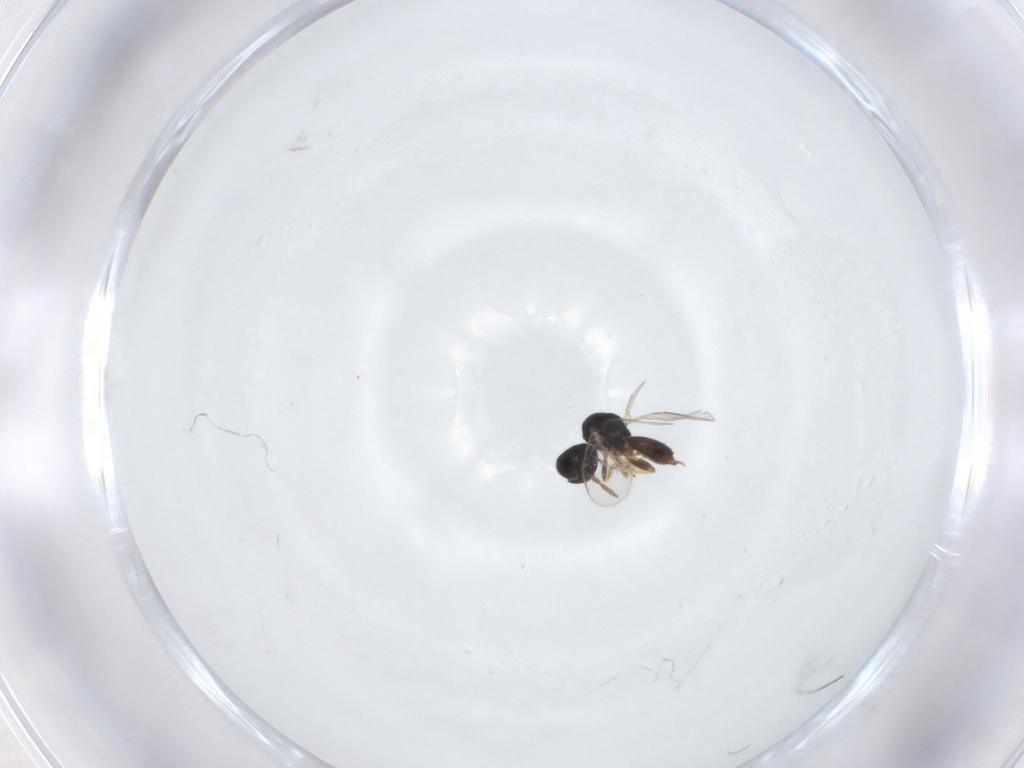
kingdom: Animalia
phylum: Arthropoda
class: Insecta
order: Hymenoptera
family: Eulophidae
